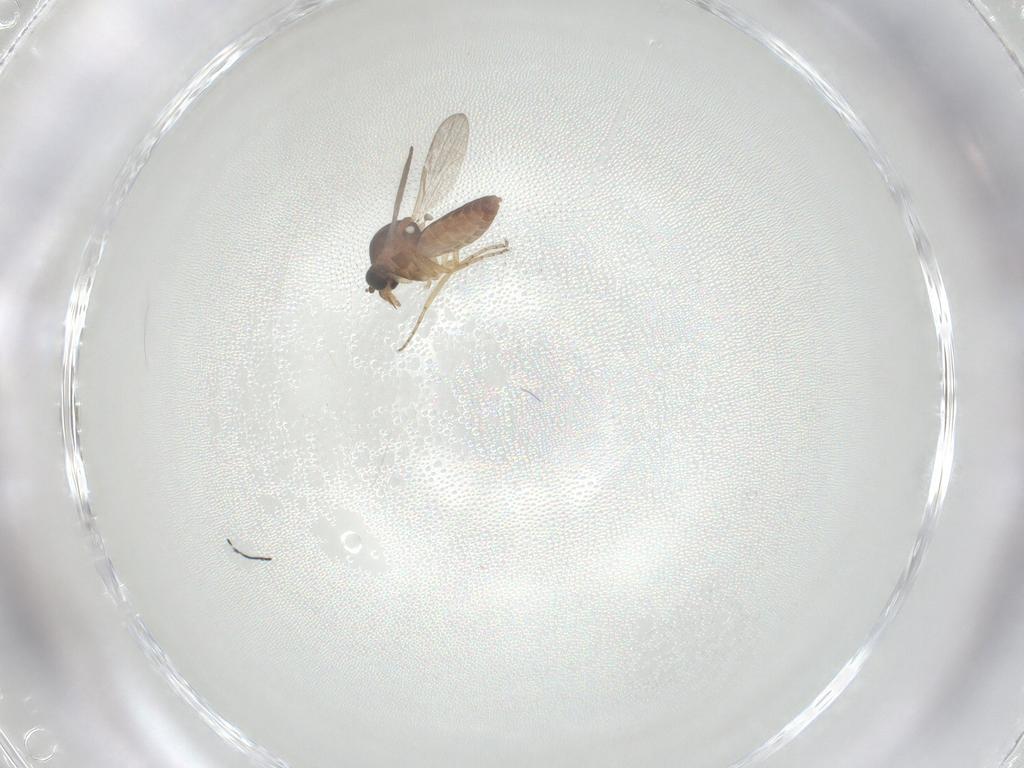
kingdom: Animalia
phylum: Arthropoda
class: Insecta
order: Diptera
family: Ceratopogonidae
